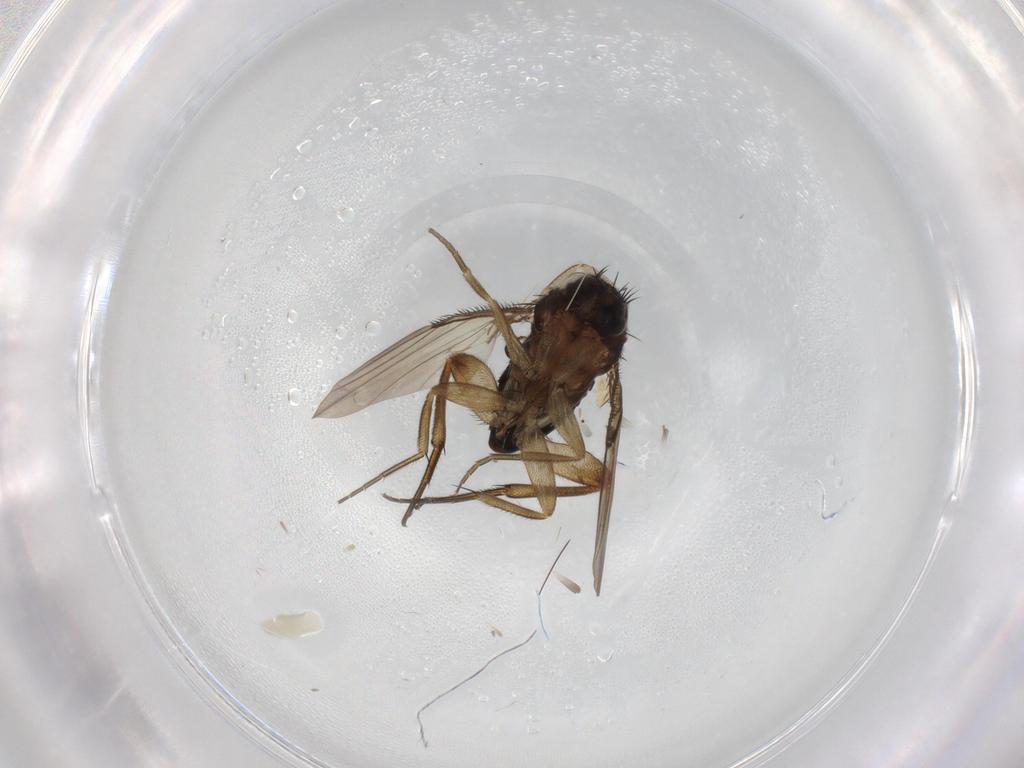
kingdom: Animalia
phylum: Arthropoda
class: Insecta
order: Diptera
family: Phoridae
